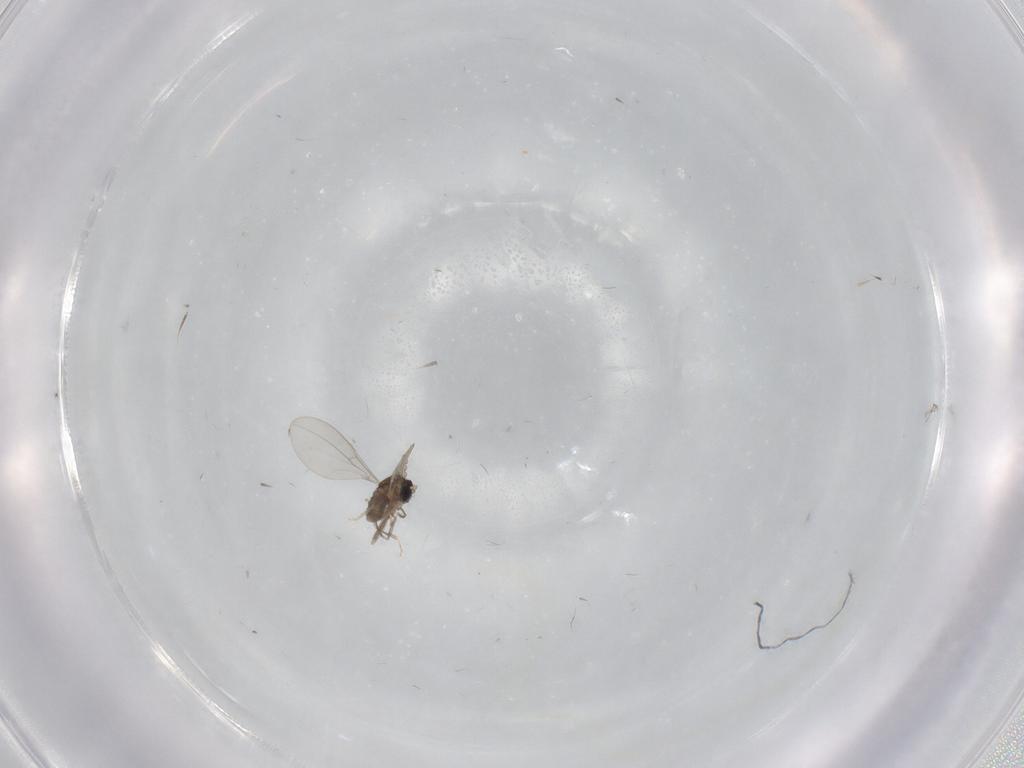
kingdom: Animalia
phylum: Arthropoda
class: Insecta
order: Diptera
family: Cecidomyiidae
